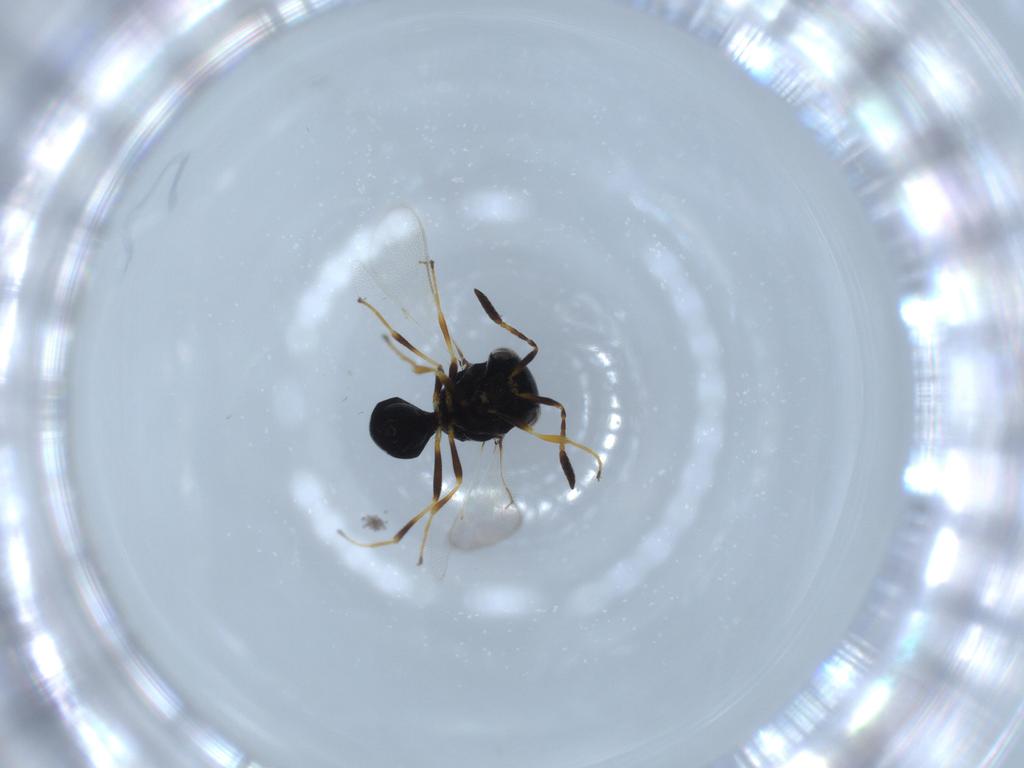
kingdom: Animalia
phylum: Arthropoda
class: Insecta
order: Hymenoptera
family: Scelionidae
